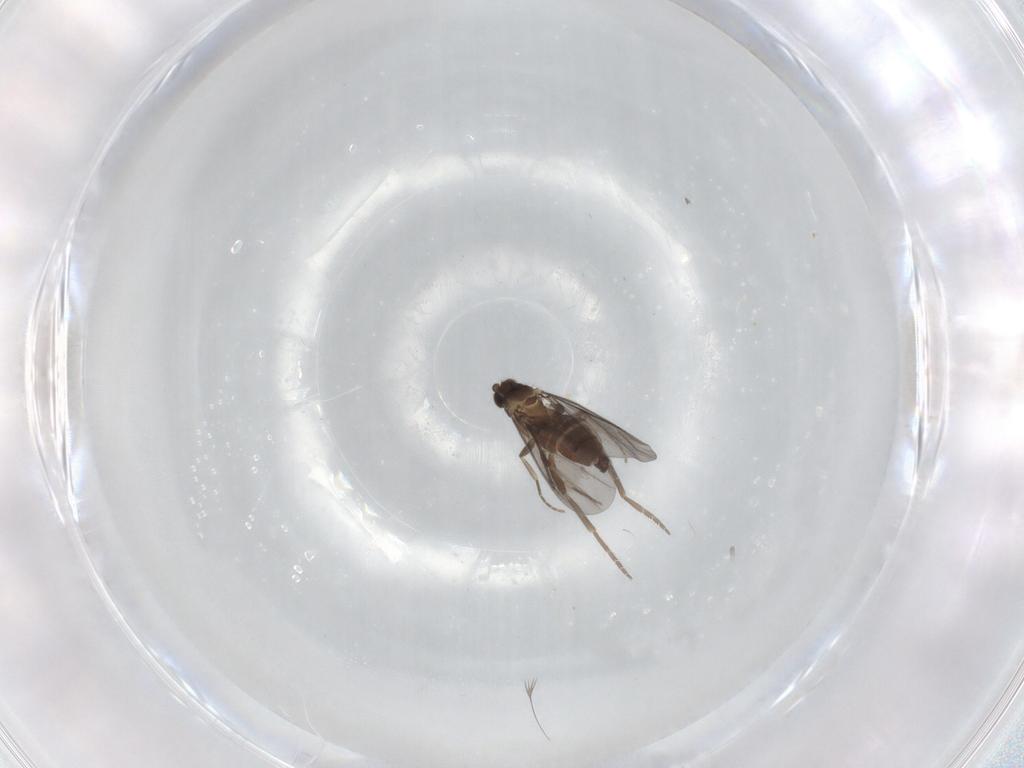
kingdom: Animalia
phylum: Arthropoda
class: Insecta
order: Diptera
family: Phoridae
